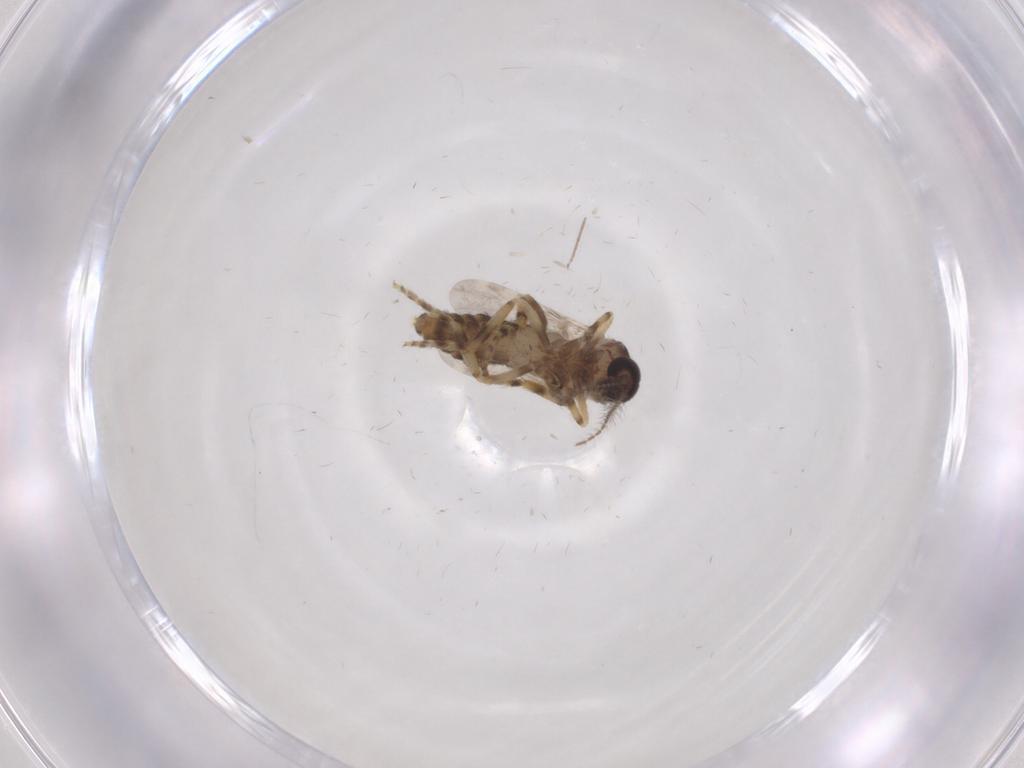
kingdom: Animalia
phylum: Arthropoda
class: Insecta
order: Diptera
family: Ceratopogonidae
